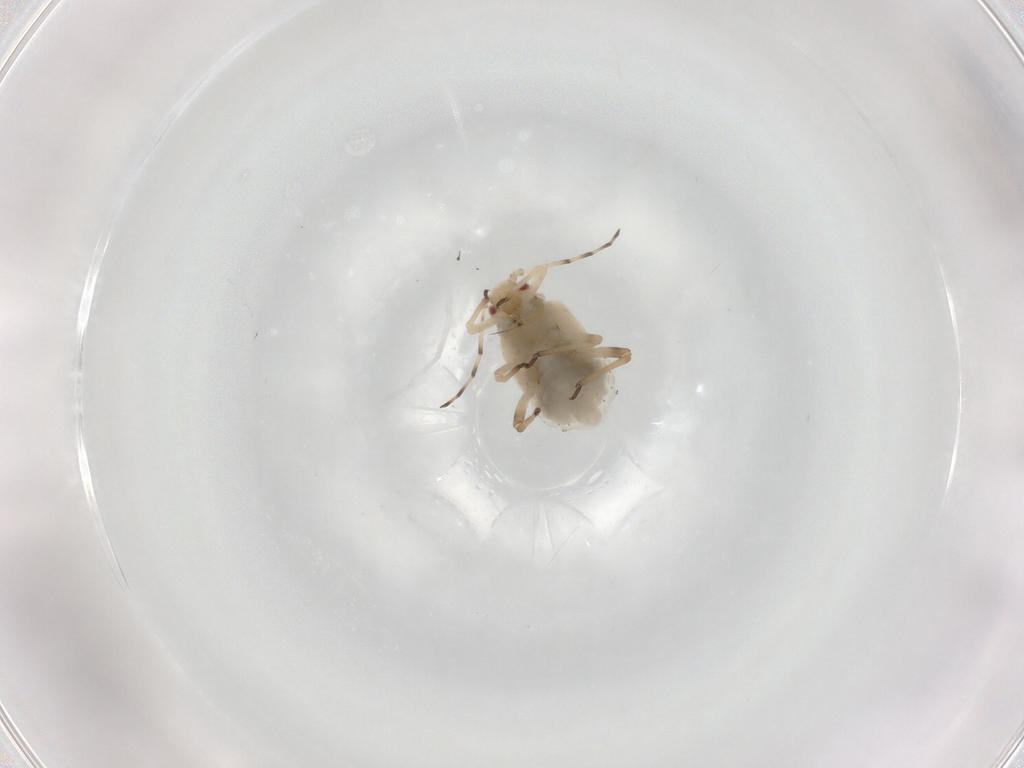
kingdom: Animalia
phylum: Arthropoda
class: Insecta
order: Hemiptera
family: Aphididae
